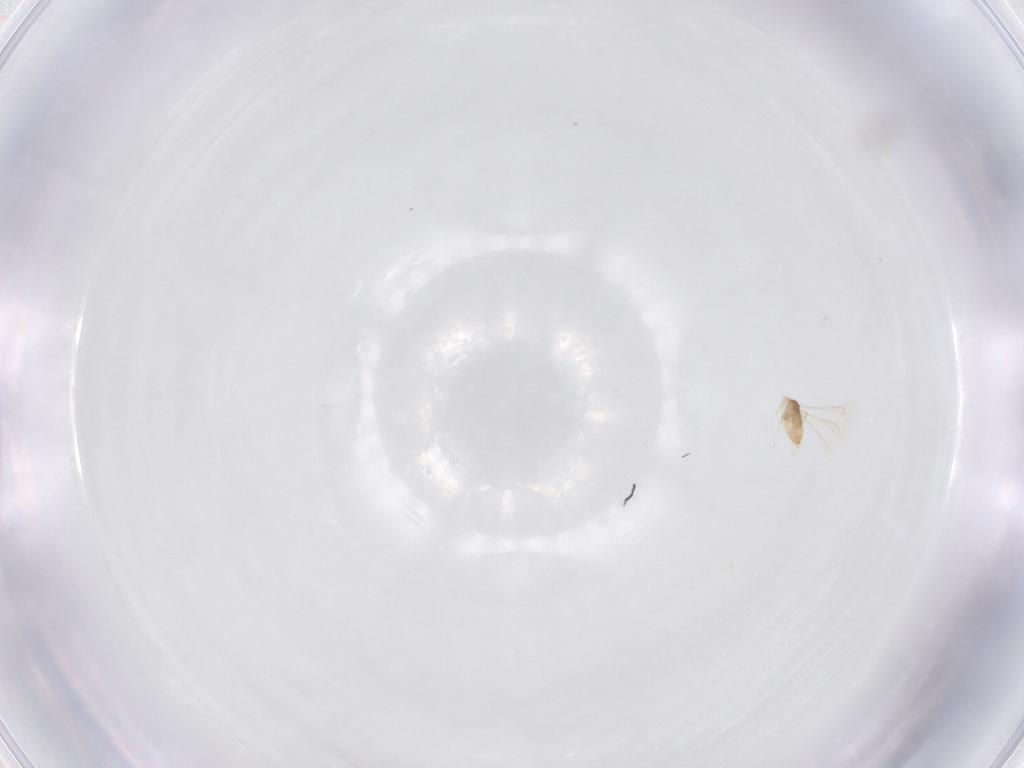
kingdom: Animalia
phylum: Arthropoda
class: Insecta
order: Hymenoptera
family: Mymaridae
